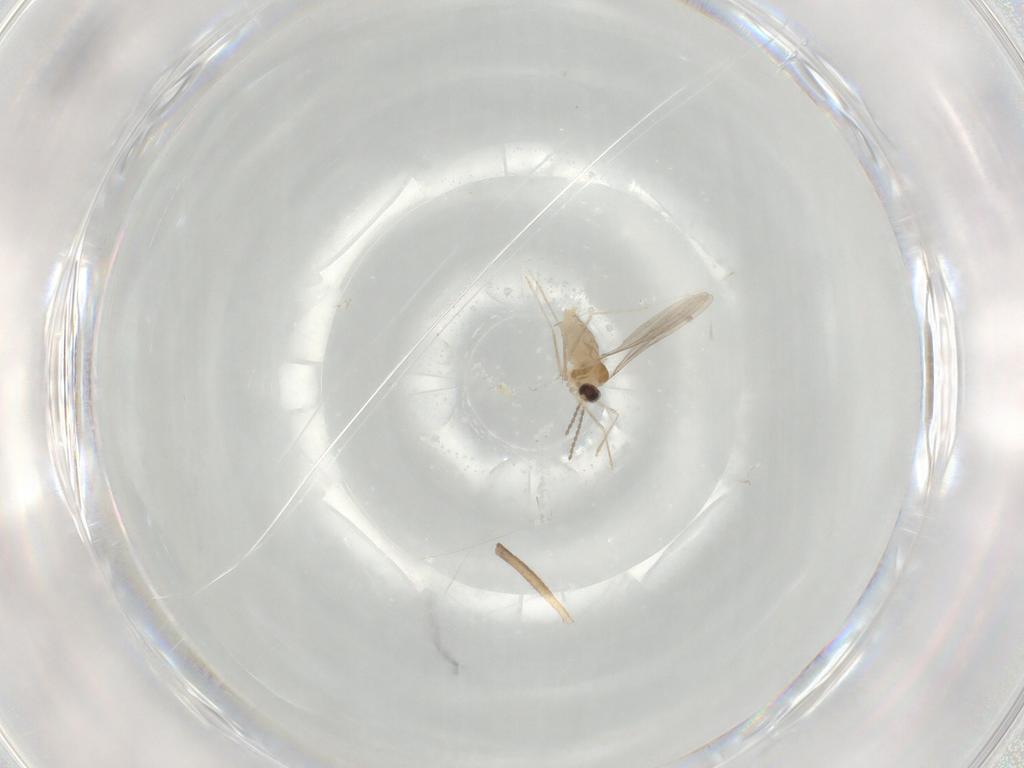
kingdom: Animalia
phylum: Arthropoda
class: Insecta
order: Diptera
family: Cecidomyiidae
